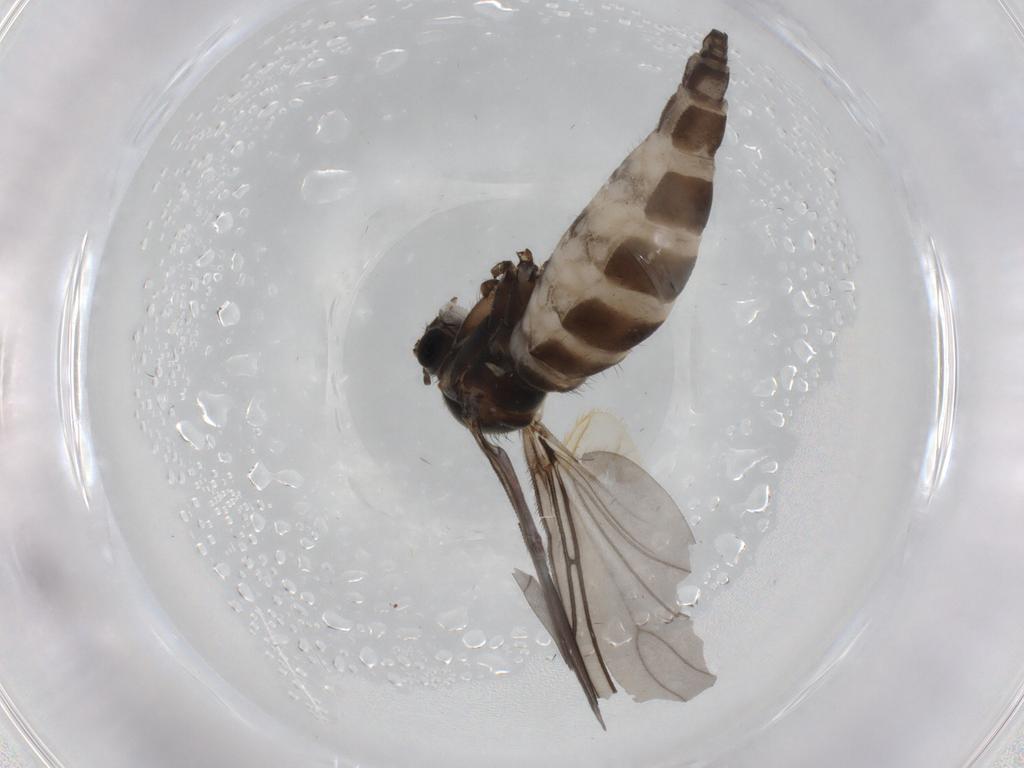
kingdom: Animalia
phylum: Arthropoda
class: Insecta
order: Diptera
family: Sciaridae
